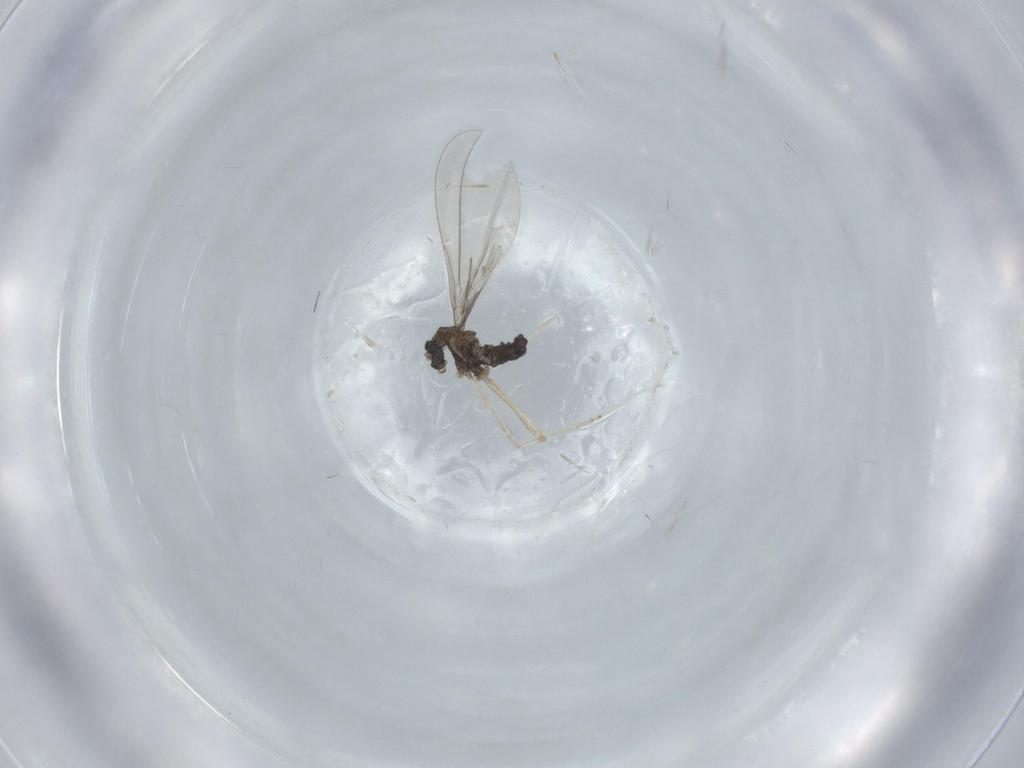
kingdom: Animalia
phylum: Arthropoda
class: Insecta
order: Diptera
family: Cecidomyiidae
